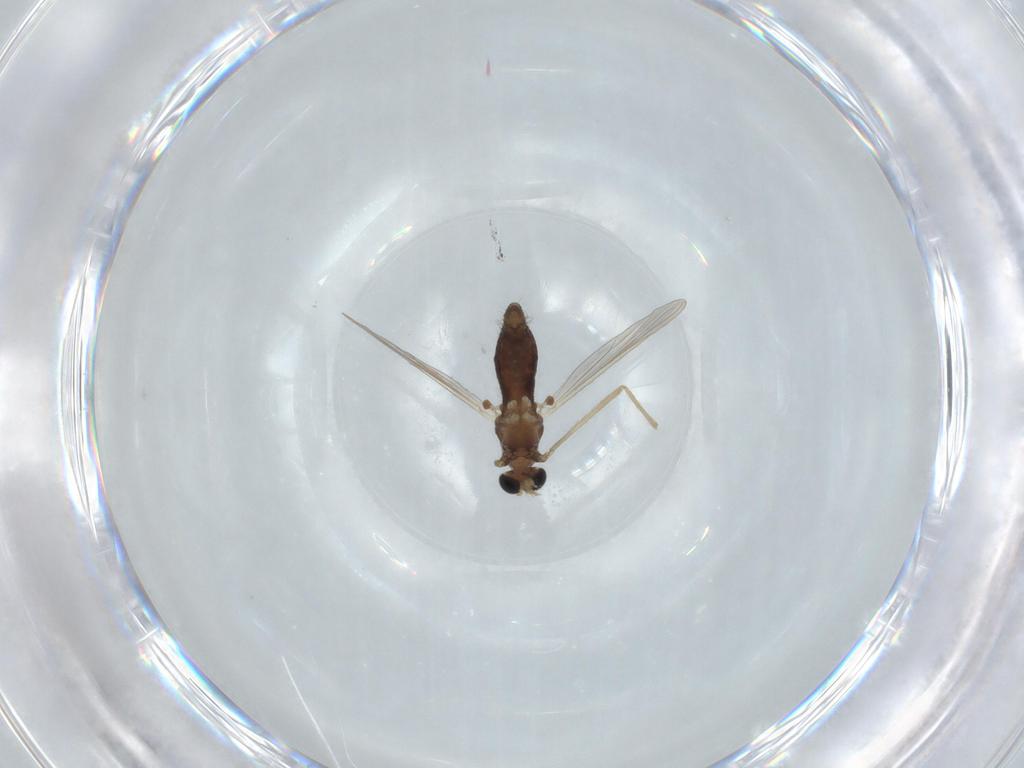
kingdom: Animalia
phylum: Arthropoda
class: Insecta
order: Diptera
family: Chironomidae
